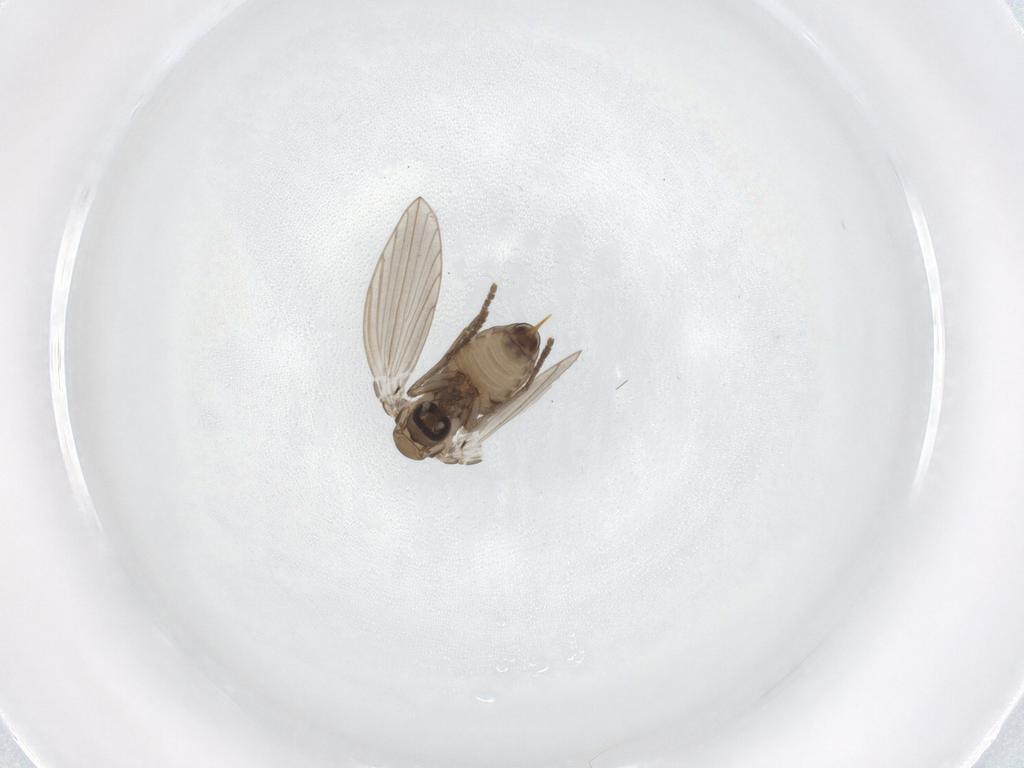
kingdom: Animalia
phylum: Arthropoda
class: Insecta
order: Diptera
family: Psychodidae
